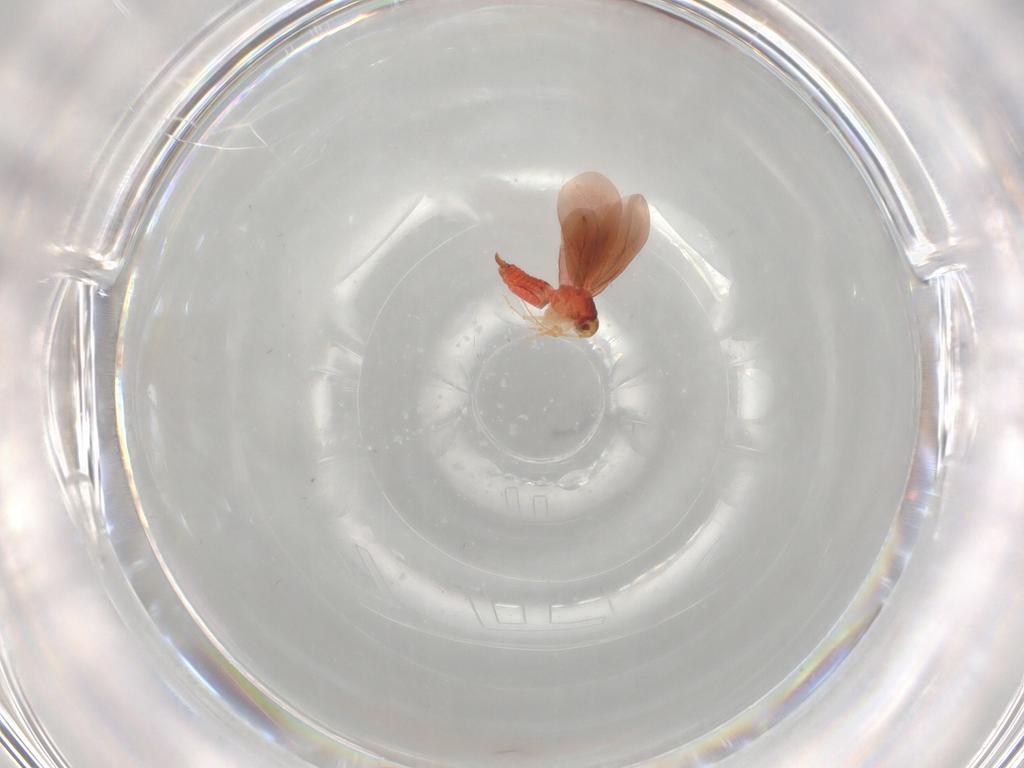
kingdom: Animalia
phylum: Arthropoda
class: Insecta
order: Hemiptera
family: Aleyrodidae
